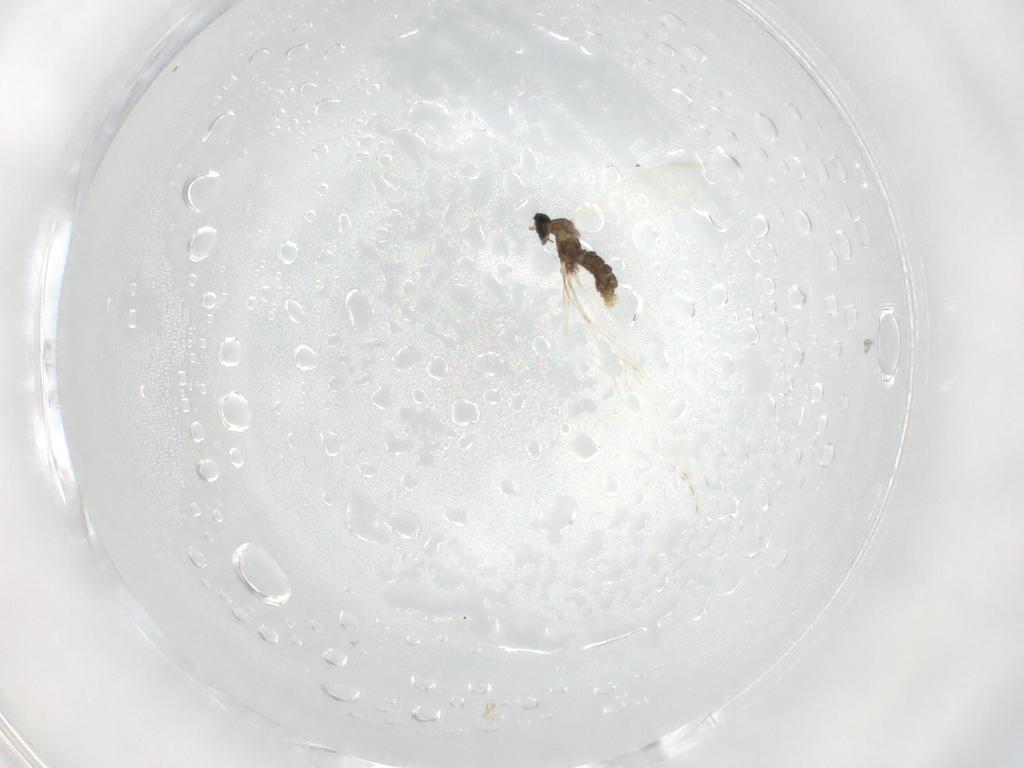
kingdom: Animalia
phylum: Arthropoda
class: Insecta
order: Diptera
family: Cecidomyiidae
